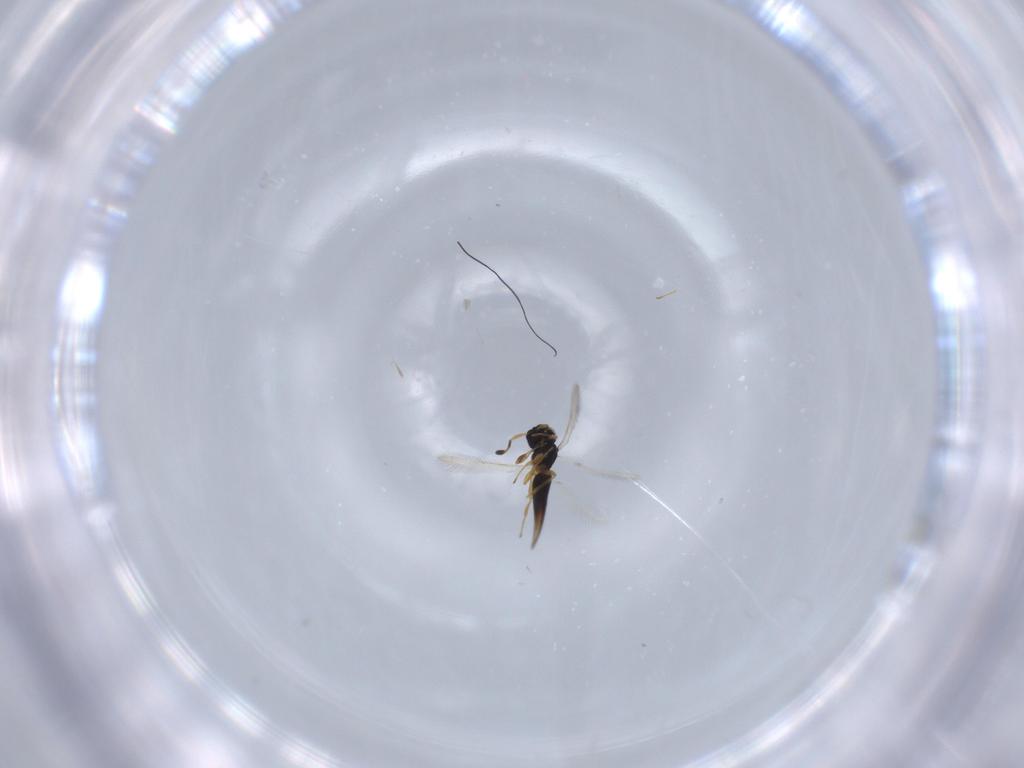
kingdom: Animalia
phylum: Arthropoda
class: Insecta
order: Hymenoptera
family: Scelionidae
